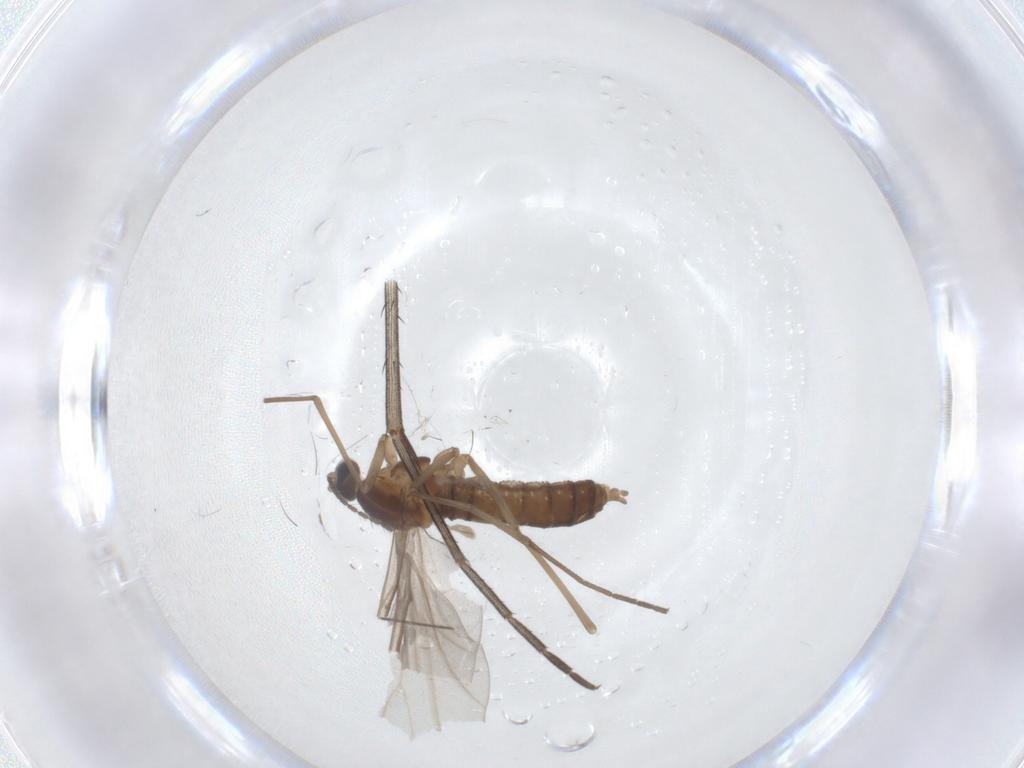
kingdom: Animalia
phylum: Arthropoda
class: Insecta
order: Diptera
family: Cecidomyiidae
